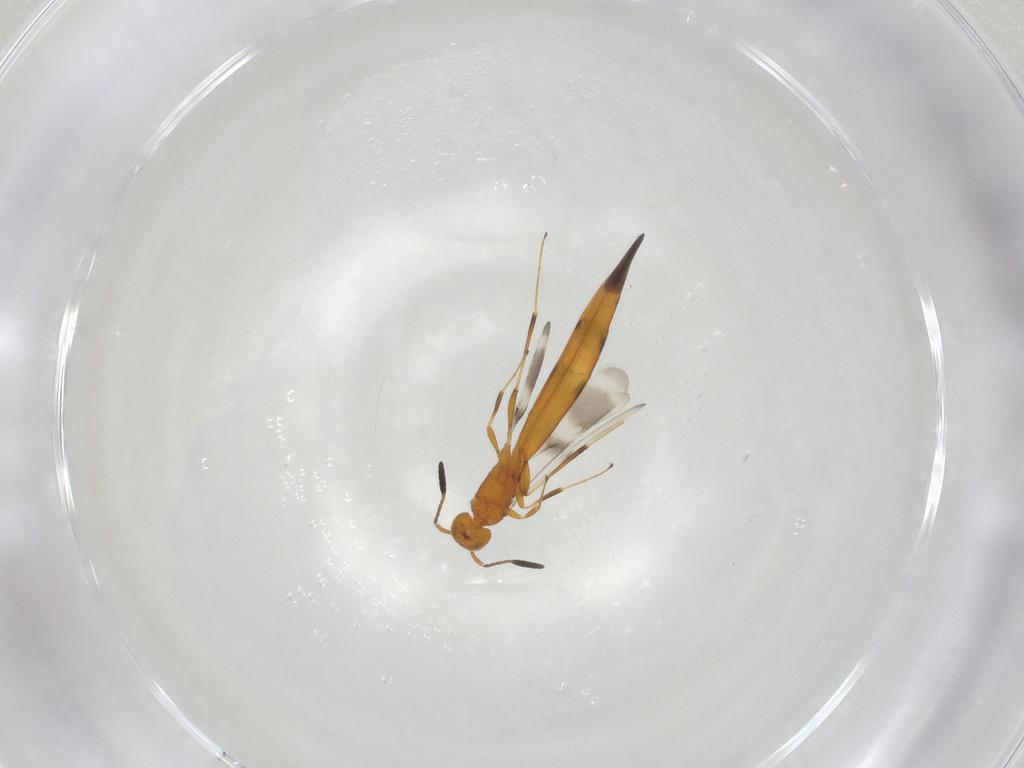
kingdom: Animalia
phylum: Arthropoda
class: Insecta
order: Hymenoptera
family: Scelionidae
